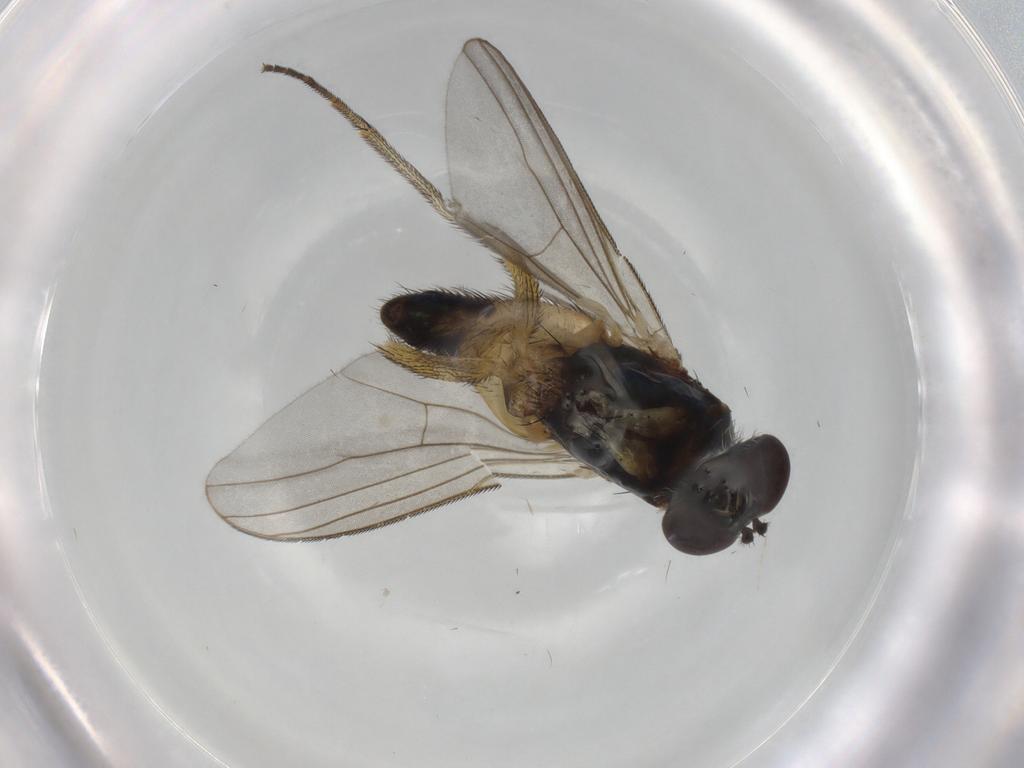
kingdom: Animalia
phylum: Arthropoda
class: Insecta
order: Diptera
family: Dolichopodidae
